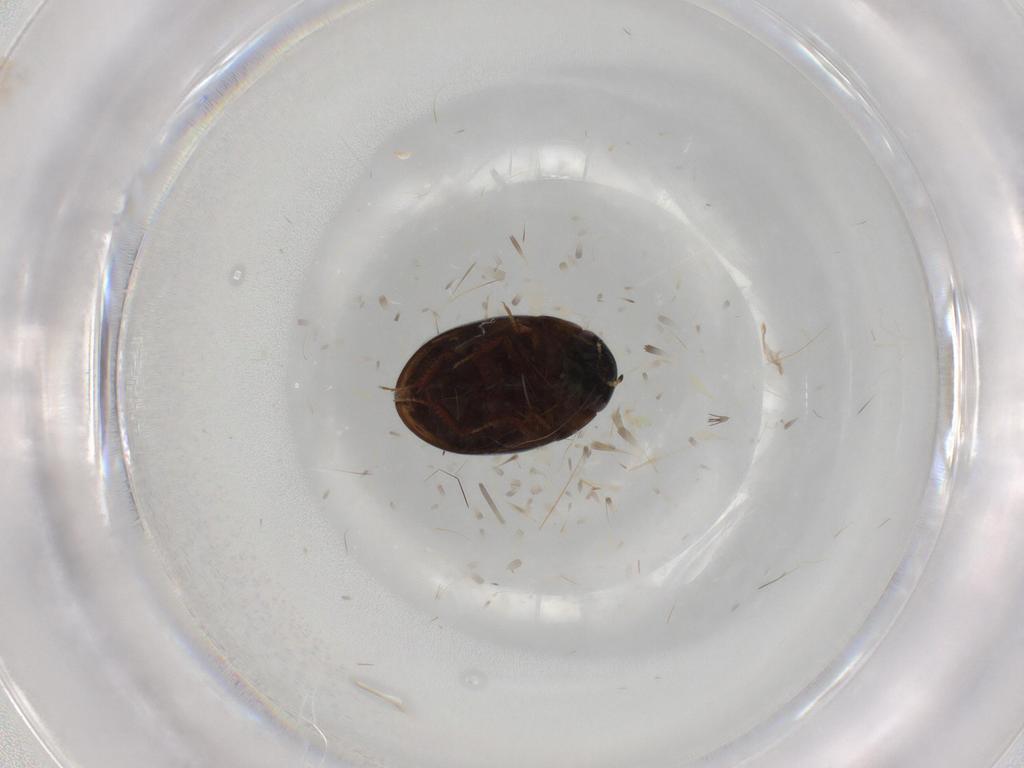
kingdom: Animalia
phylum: Arthropoda
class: Insecta
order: Coleoptera
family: Hydrophilidae
